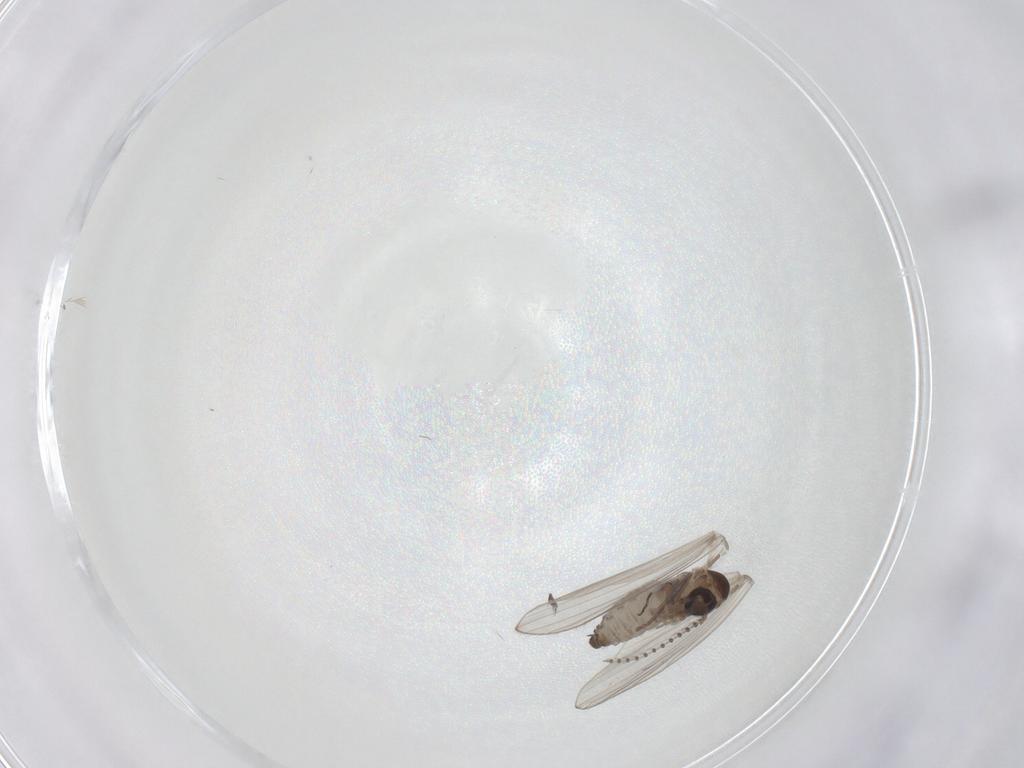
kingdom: Animalia
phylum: Arthropoda
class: Insecta
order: Diptera
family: Psychodidae
